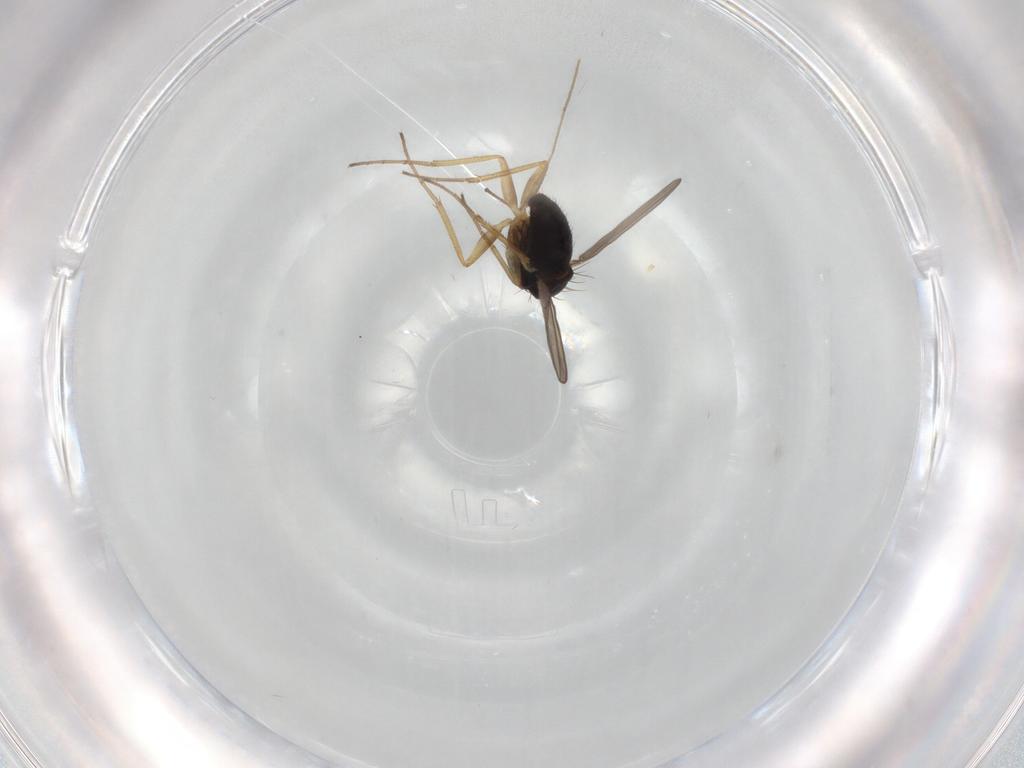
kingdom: Animalia
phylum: Arthropoda
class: Insecta
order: Diptera
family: Dolichopodidae
